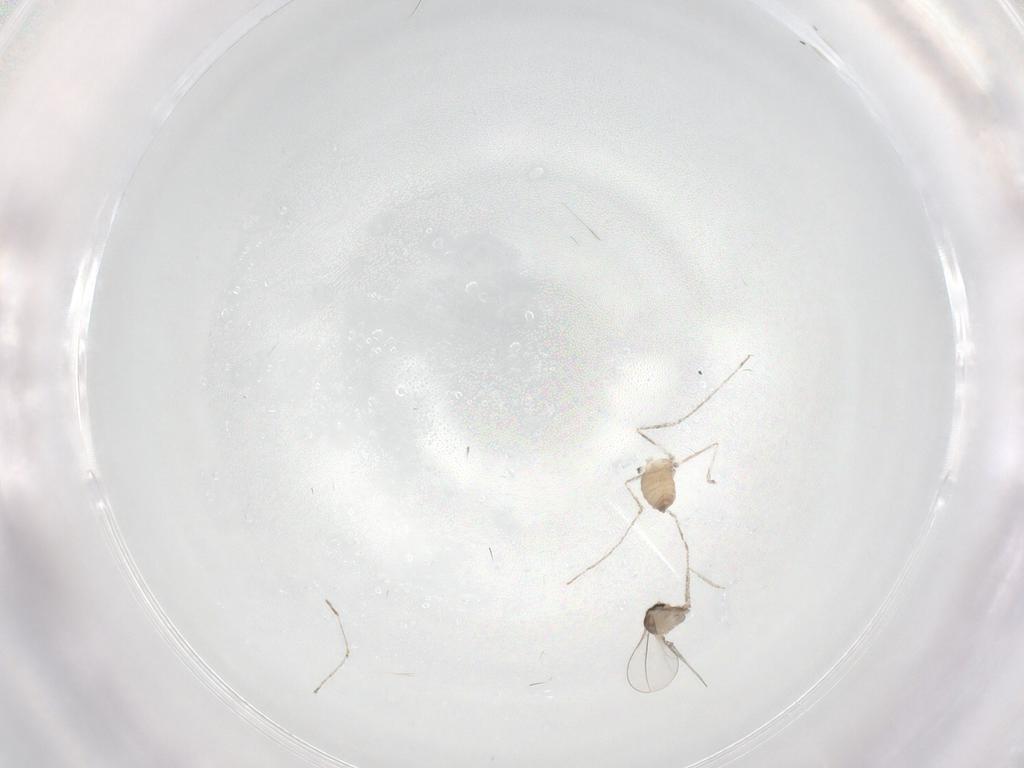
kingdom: Animalia
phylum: Arthropoda
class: Insecta
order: Diptera
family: Cecidomyiidae
